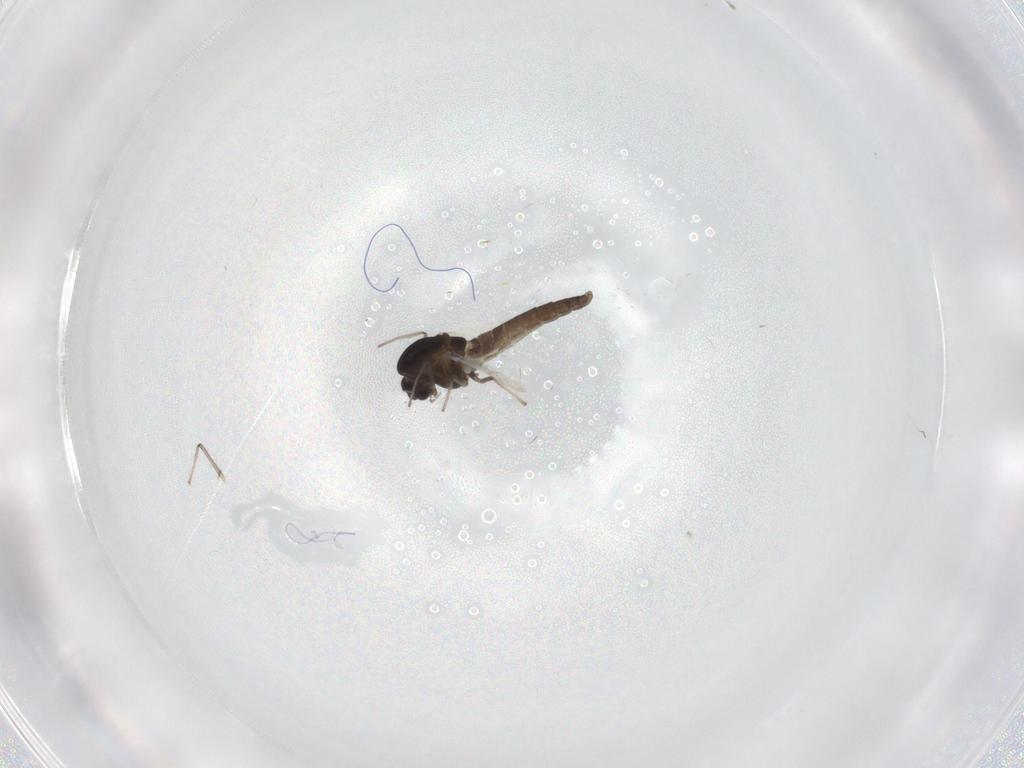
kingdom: Animalia
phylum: Arthropoda
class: Insecta
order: Diptera
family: Chironomidae
